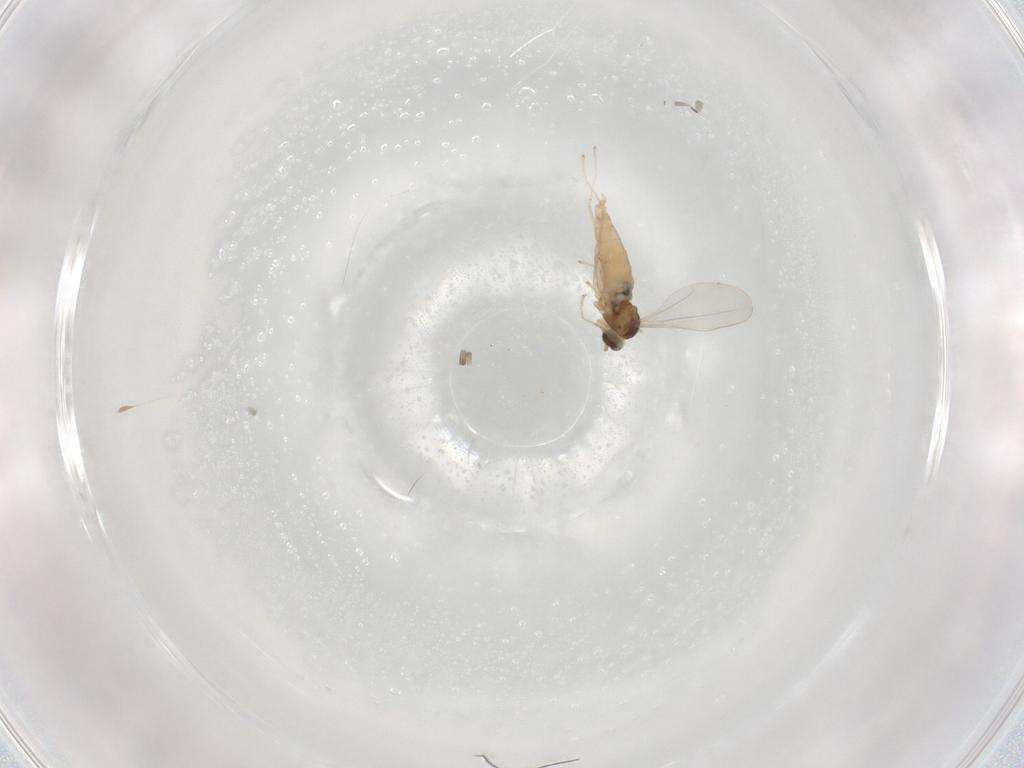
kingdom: Animalia
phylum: Arthropoda
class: Insecta
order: Diptera
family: Cecidomyiidae
